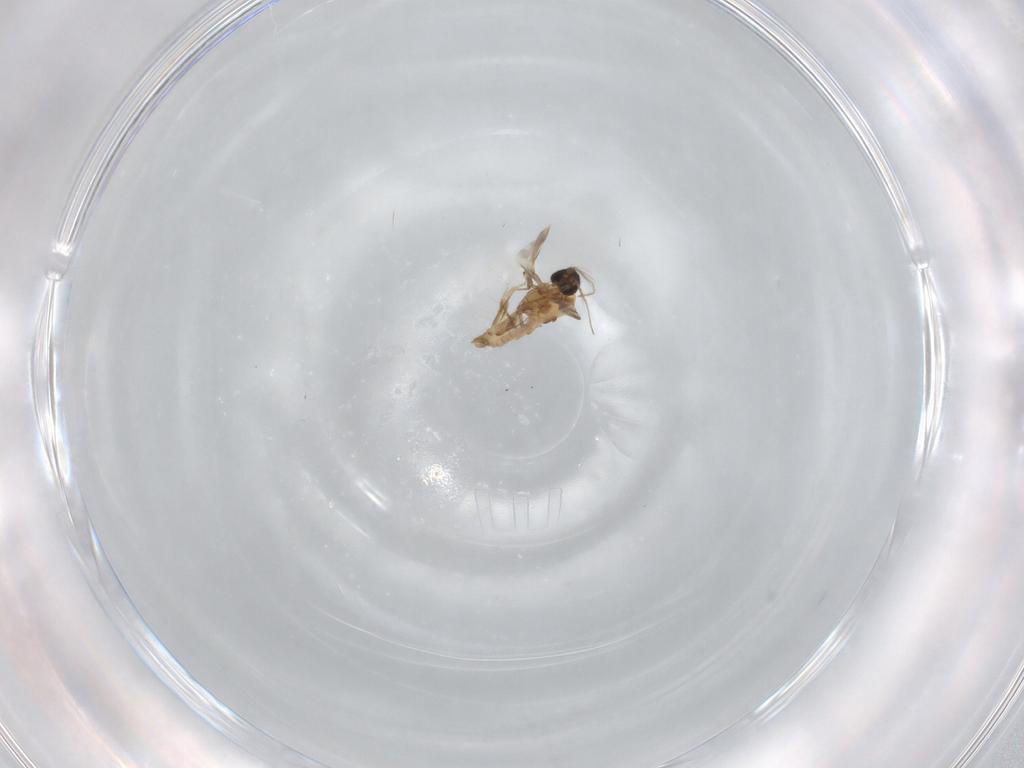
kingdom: Animalia
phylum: Arthropoda
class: Insecta
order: Diptera
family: Ceratopogonidae
